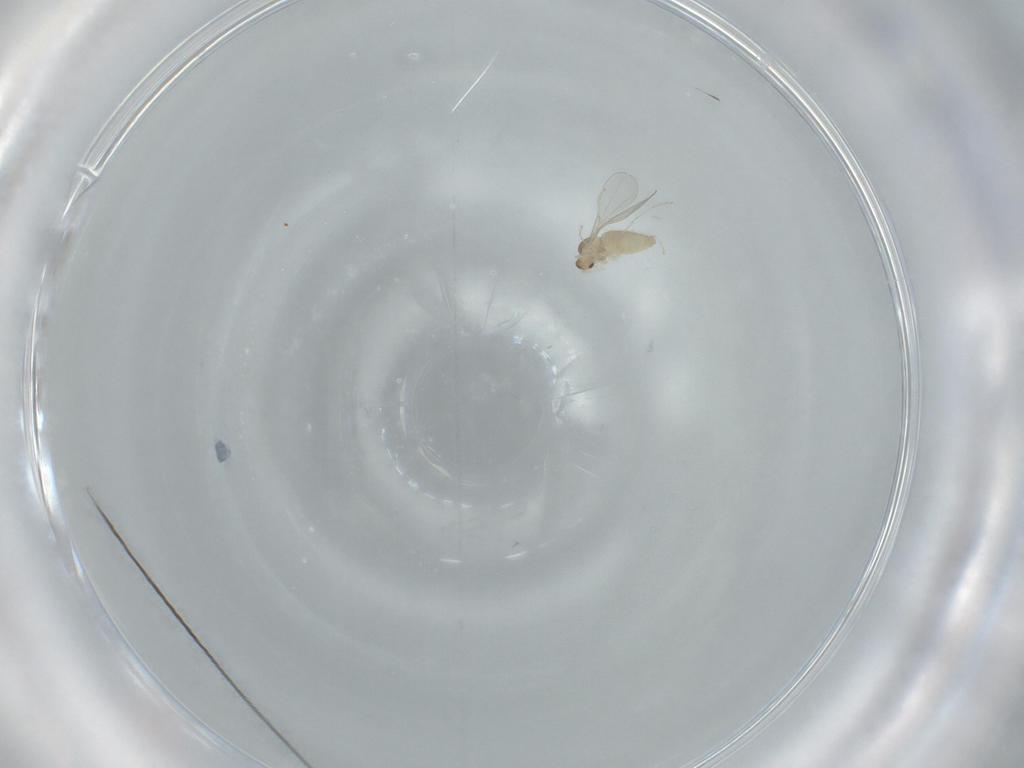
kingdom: Animalia
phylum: Arthropoda
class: Insecta
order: Diptera
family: Cecidomyiidae
